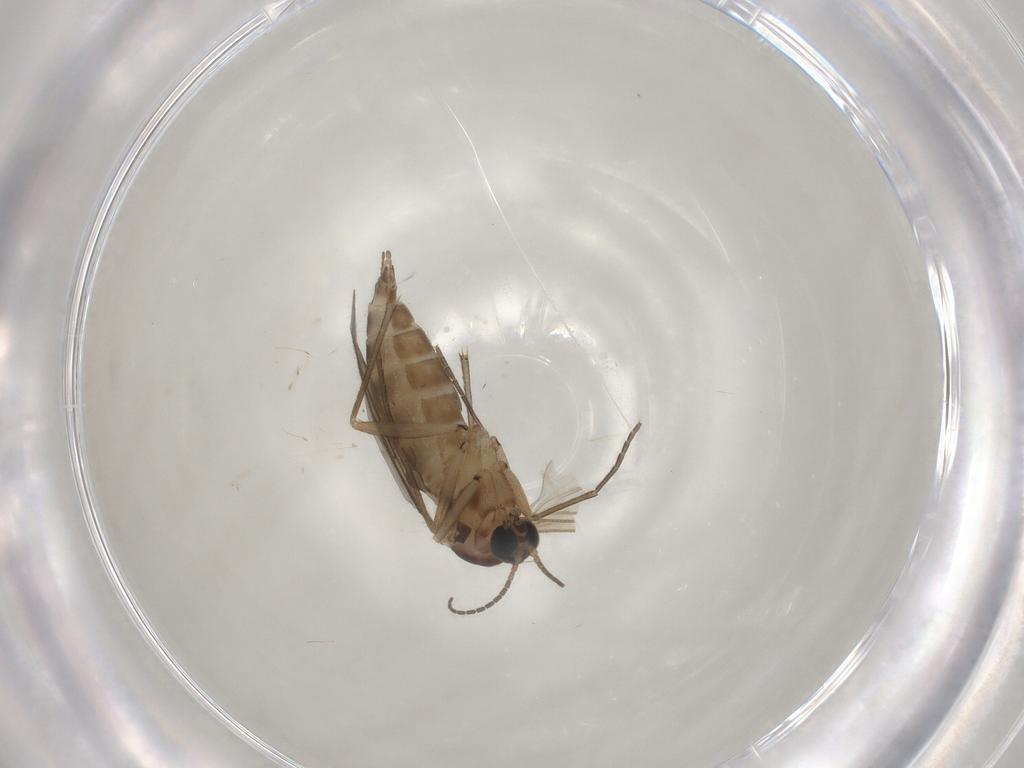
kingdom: Animalia
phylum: Arthropoda
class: Insecta
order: Diptera
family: Sciaridae
